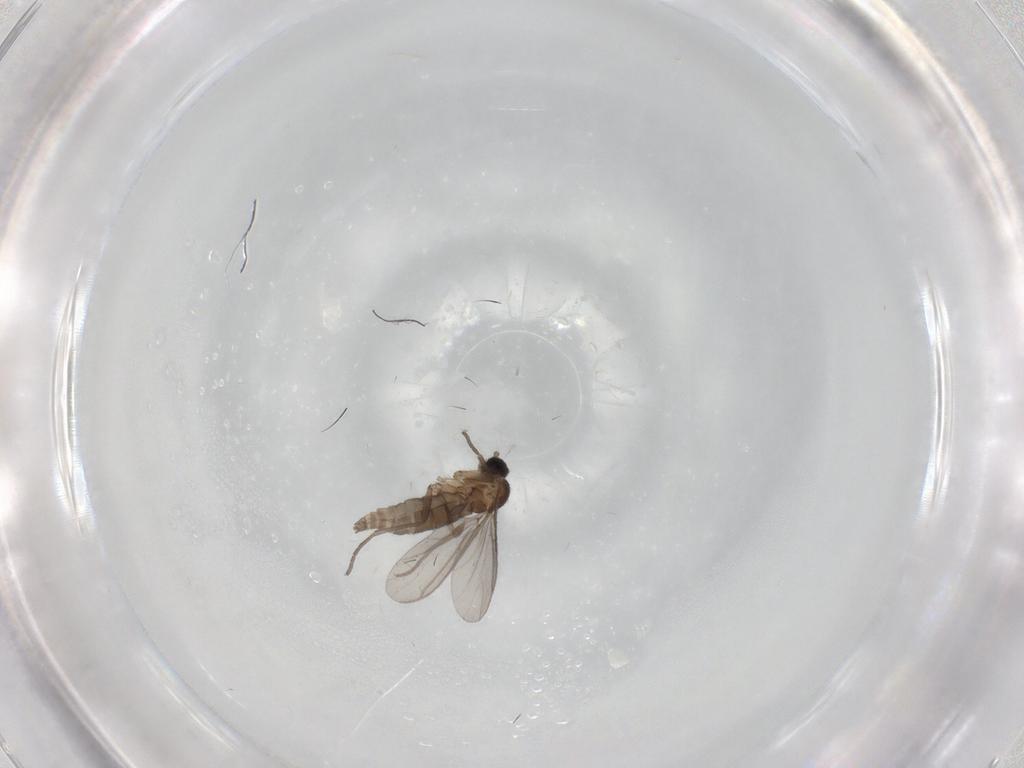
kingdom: Animalia
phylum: Arthropoda
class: Insecta
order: Diptera
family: Dolichopodidae
